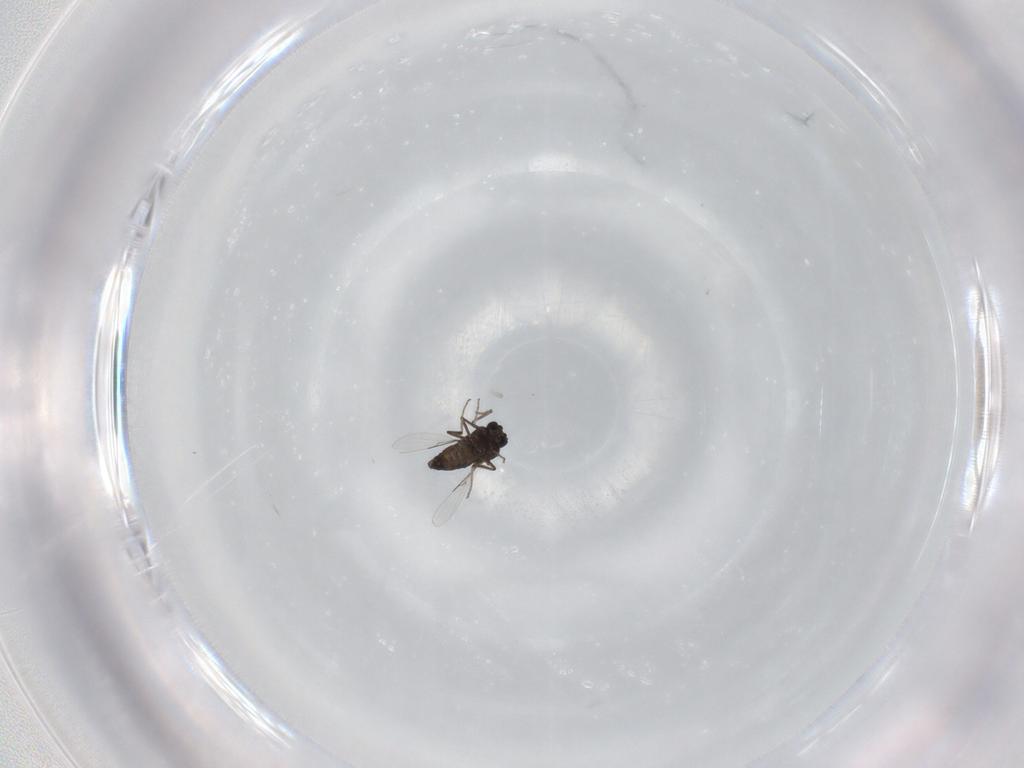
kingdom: Animalia
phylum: Arthropoda
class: Insecta
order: Diptera
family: Ceratopogonidae
